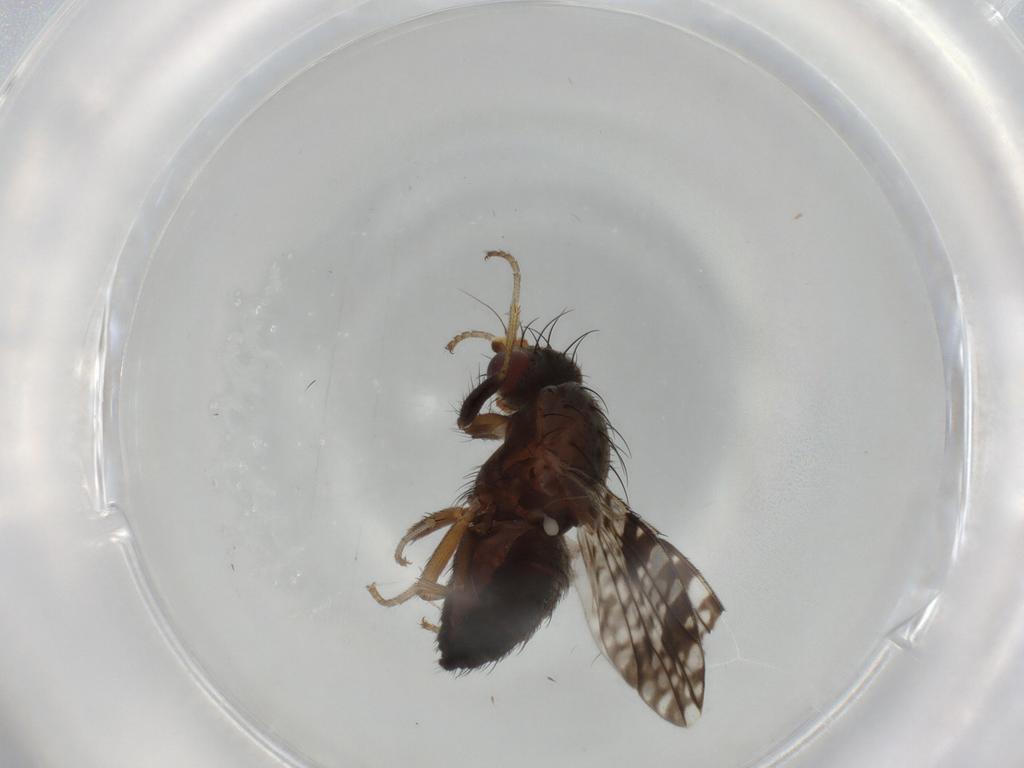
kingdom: Animalia
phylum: Arthropoda
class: Insecta
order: Diptera
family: Tephritidae
